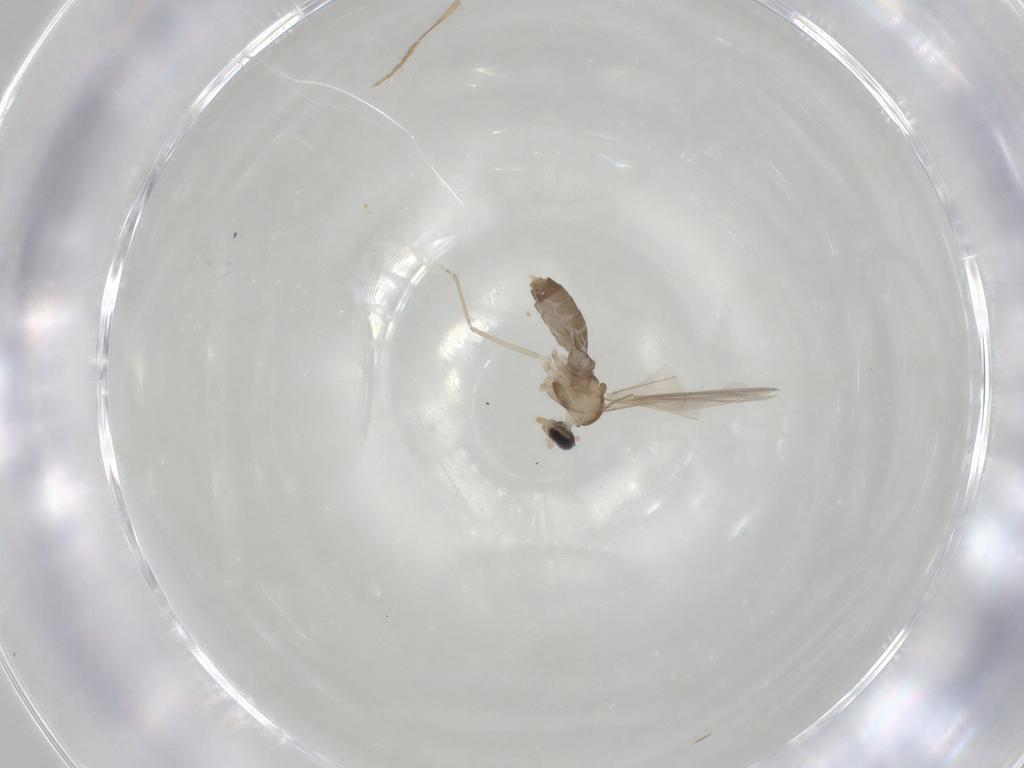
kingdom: Animalia
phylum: Arthropoda
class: Insecta
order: Diptera
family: Cecidomyiidae
